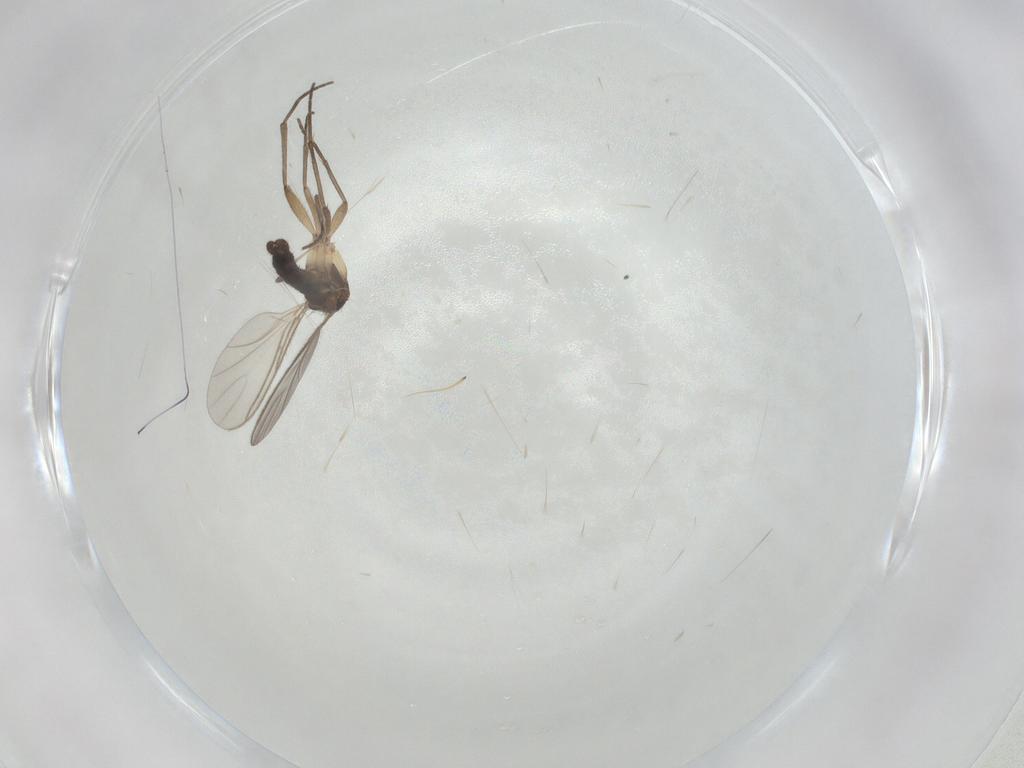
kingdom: Animalia
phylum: Arthropoda
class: Insecta
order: Diptera
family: Sciaridae
